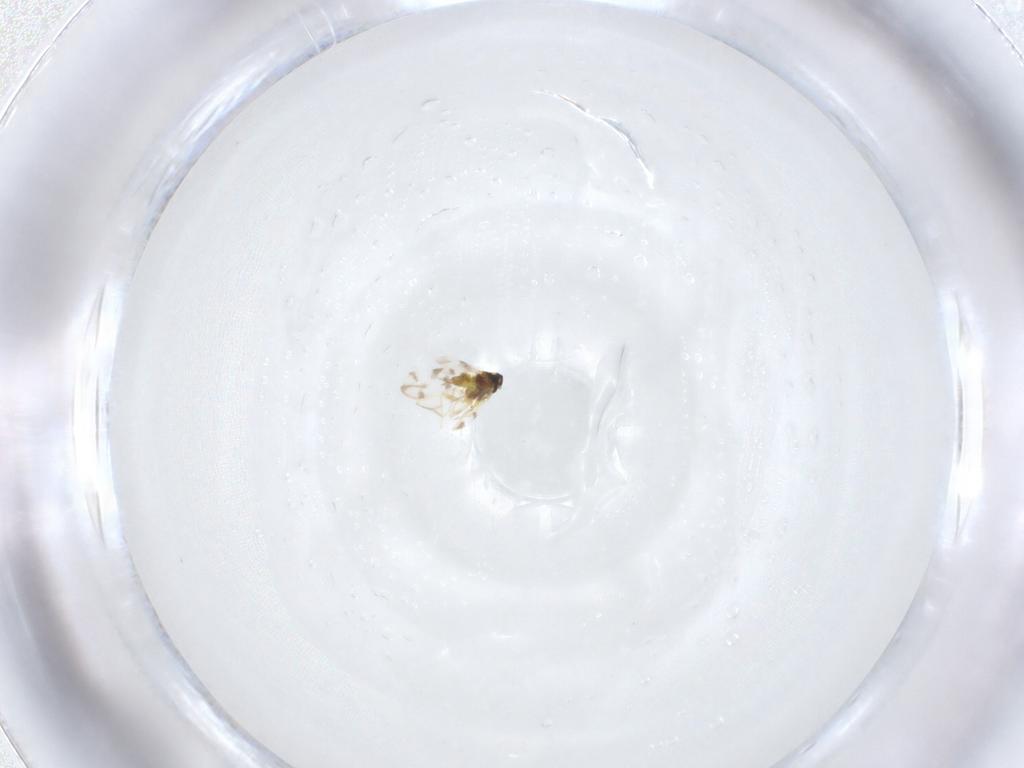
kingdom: Animalia
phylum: Arthropoda
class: Insecta
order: Hemiptera
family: Aleyrodidae
